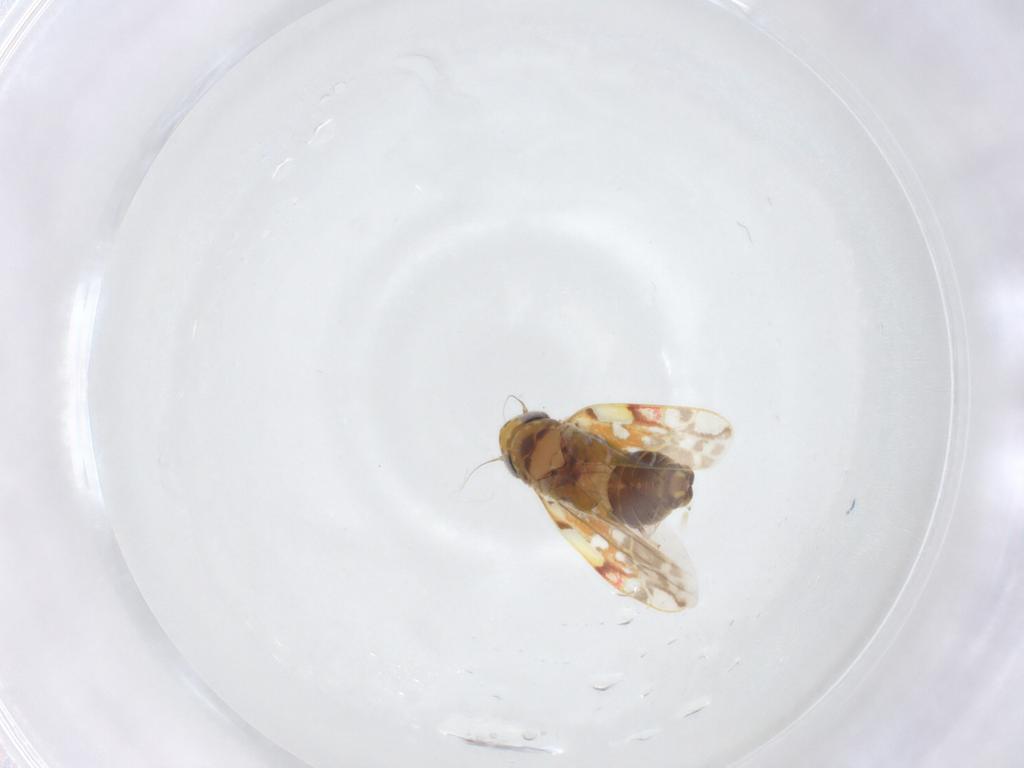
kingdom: Animalia
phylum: Arthropoda
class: Insecta
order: Hemiptera
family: Cicadellidae
